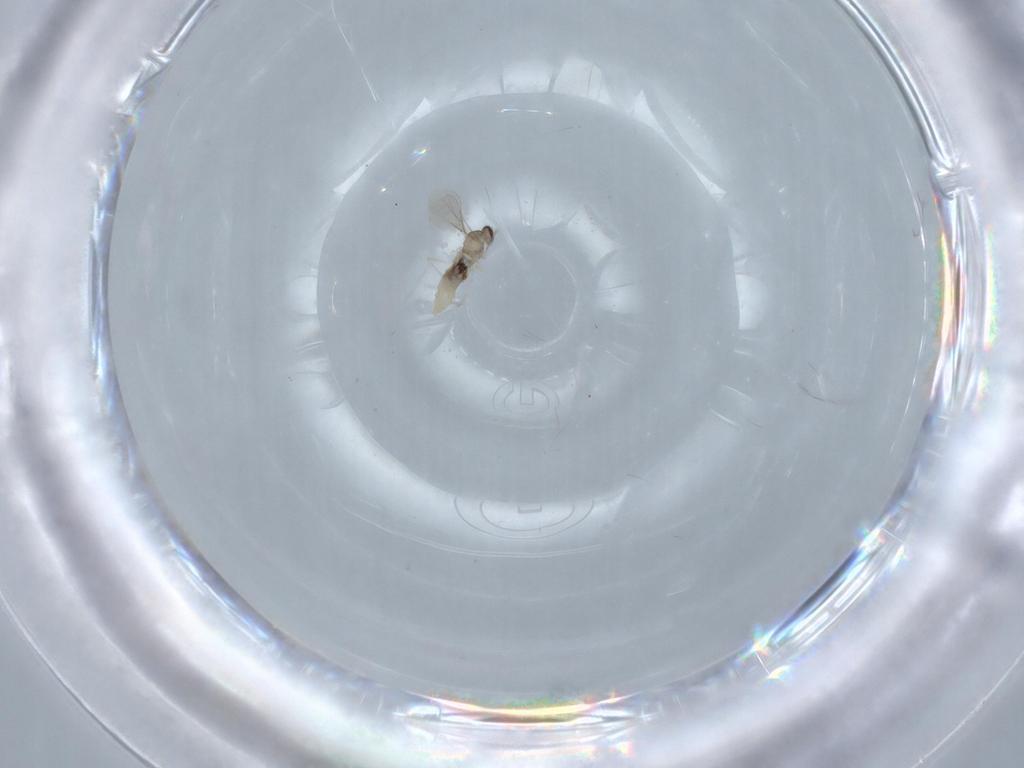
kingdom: Animalia
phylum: Arthropoda
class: Insecta
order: Diptera
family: Cecidomyiidae
